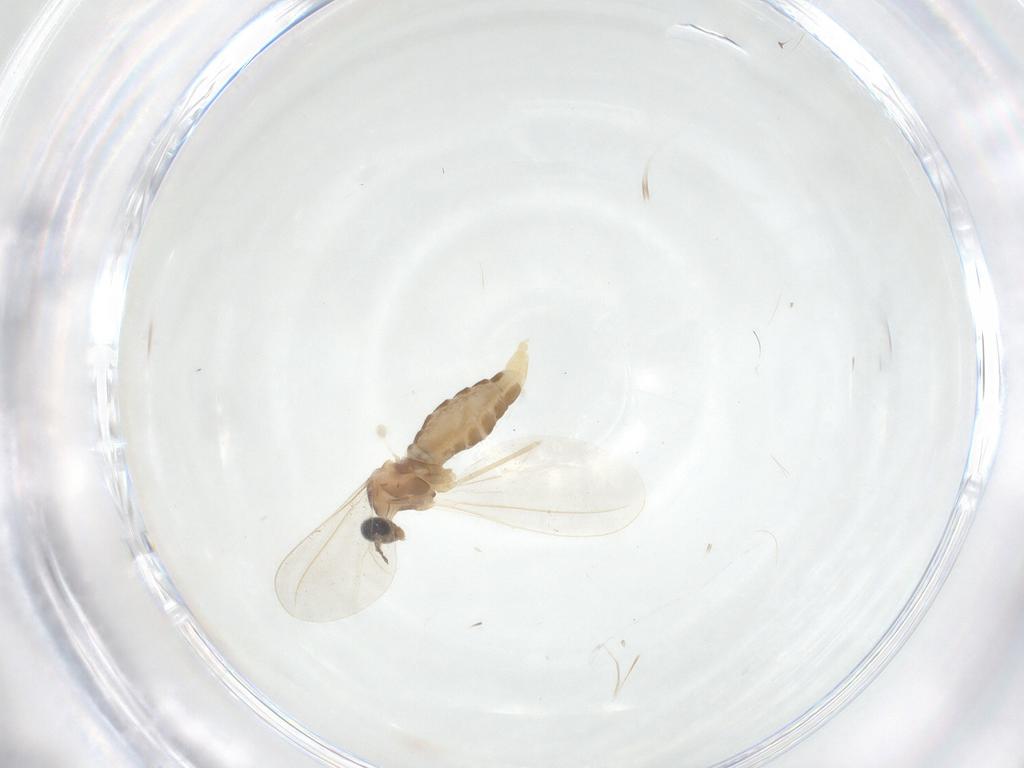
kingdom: Animalia
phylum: Arthropoda
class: Insecta
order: Diptera
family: Cecidomyiidae
